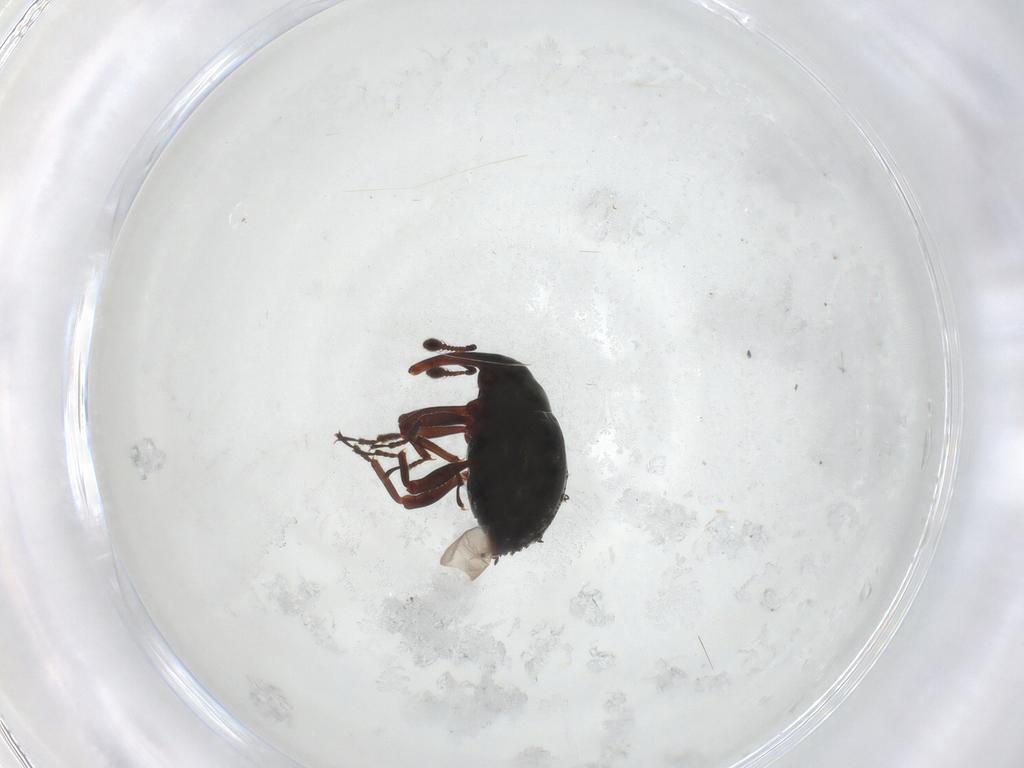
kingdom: Animalia
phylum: Arthropoda
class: Insecta
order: Coleoptera
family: Curculionidae
